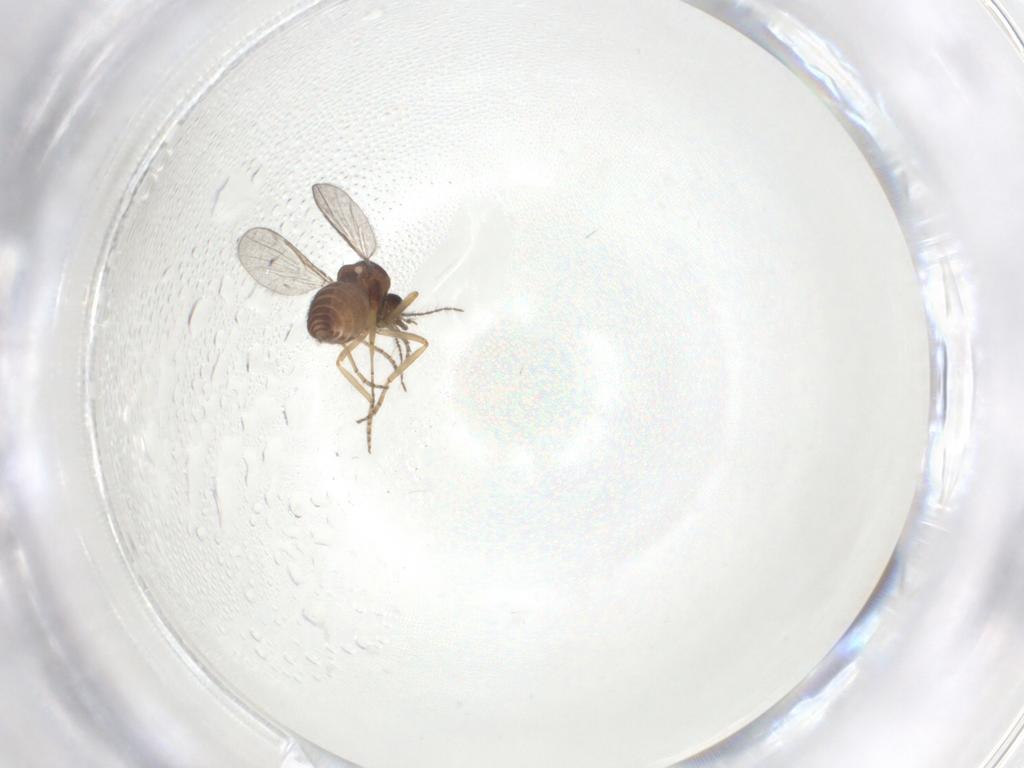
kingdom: Animalia
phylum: Arthropoda
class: Insecta
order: Diptera
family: Ceratopogonidae
